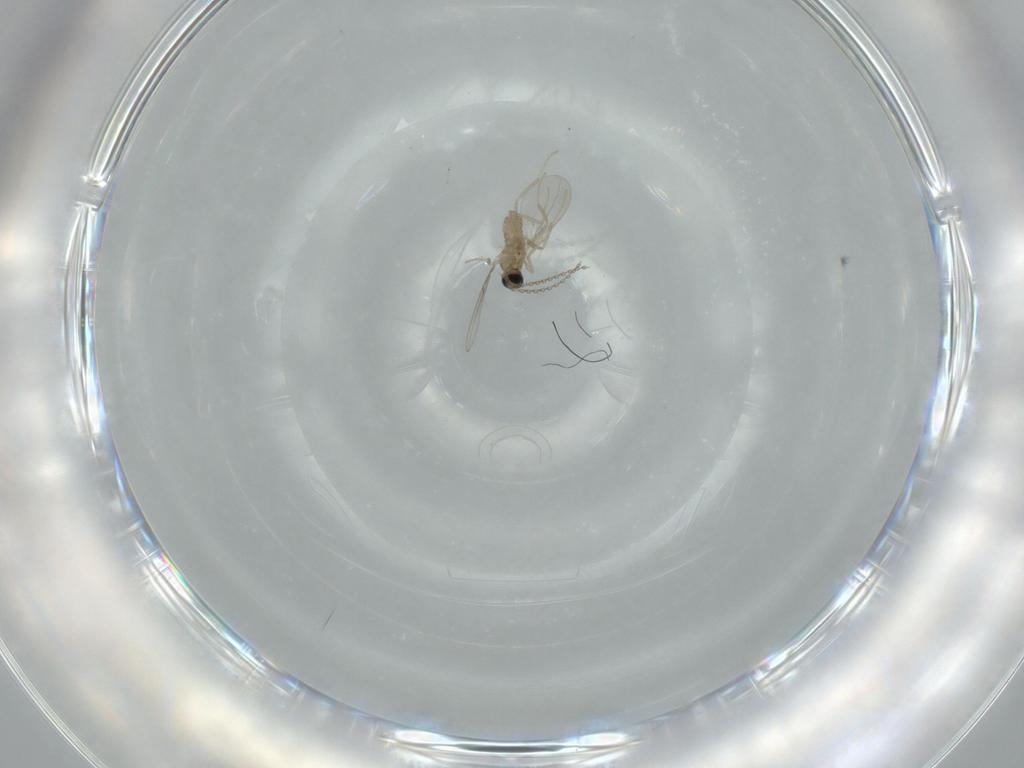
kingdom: Animalia
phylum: Arthropoda
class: Insecta
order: Diptera
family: Cecidomyiidae
